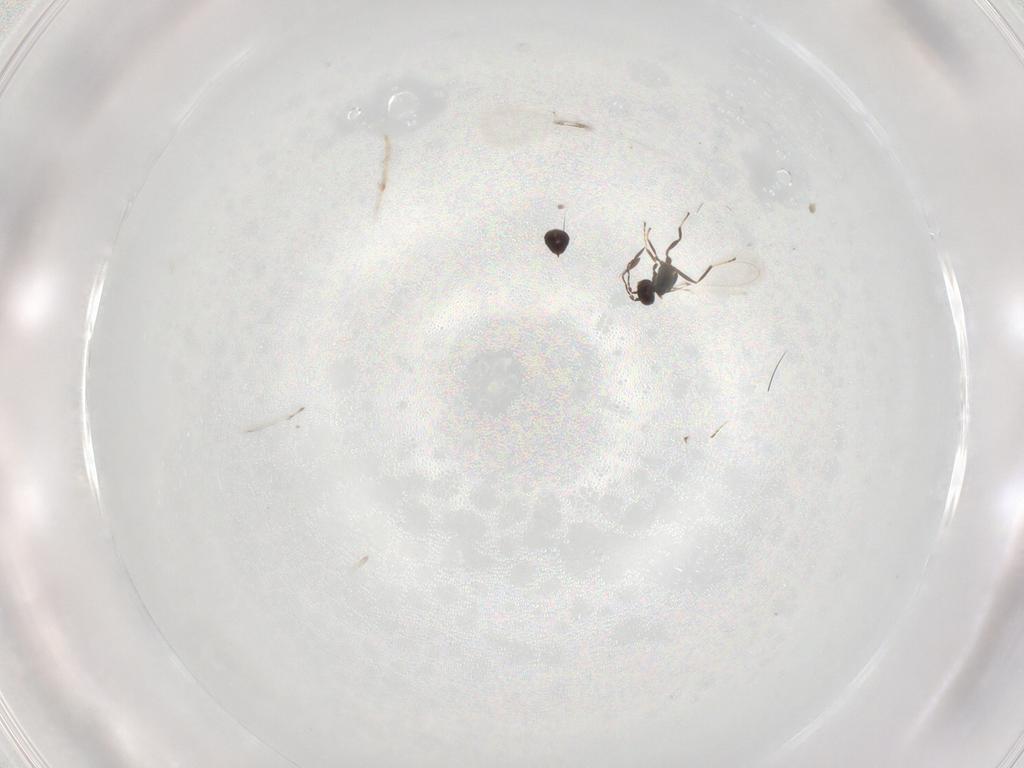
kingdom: Animalia
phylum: Arthropoda
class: Insecta
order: Hymenoptera
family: Mymaridae
